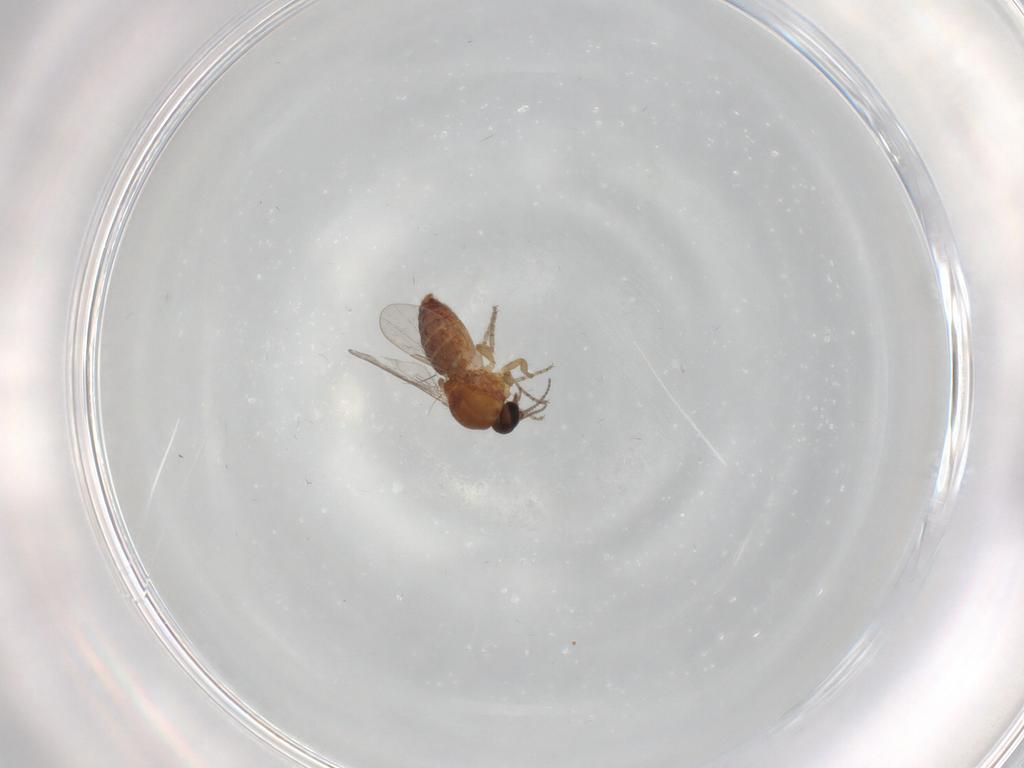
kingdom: Animalia
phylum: Arthropoda
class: Insecta
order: Diptera
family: Ceratopogonidae
